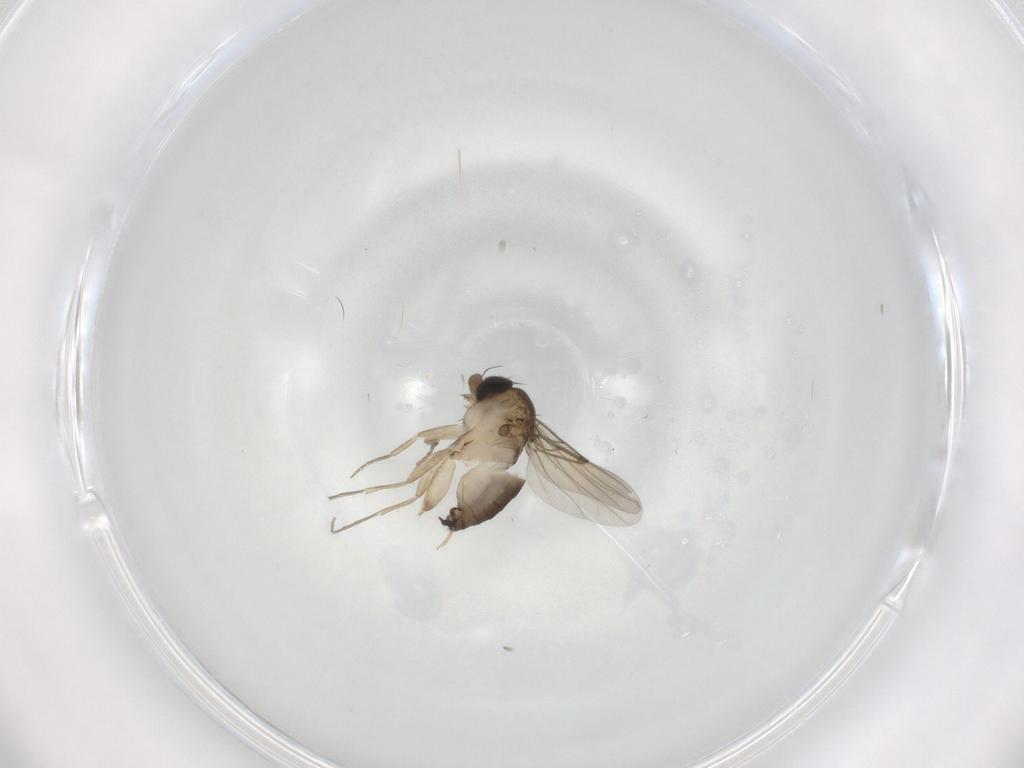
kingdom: Animalia
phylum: Arthropoda
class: Insecta
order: Diptera
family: Phoridae
